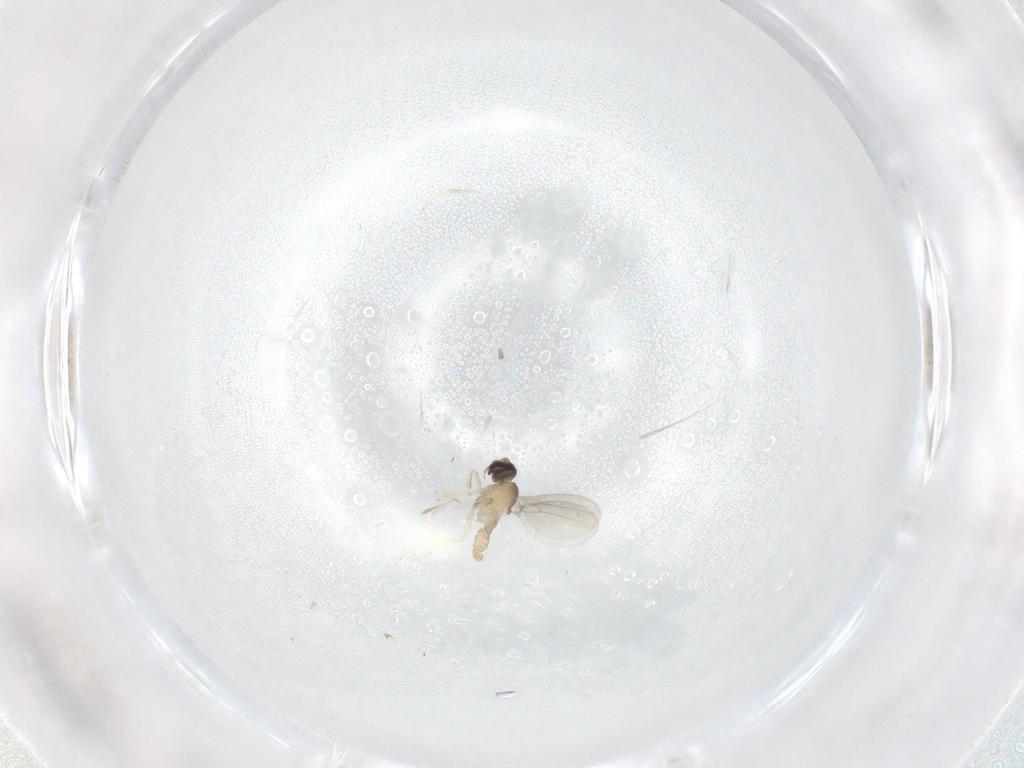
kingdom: Animalia
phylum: Arthropoda
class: Insecta
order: Diptera
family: Cecidomyiidae
